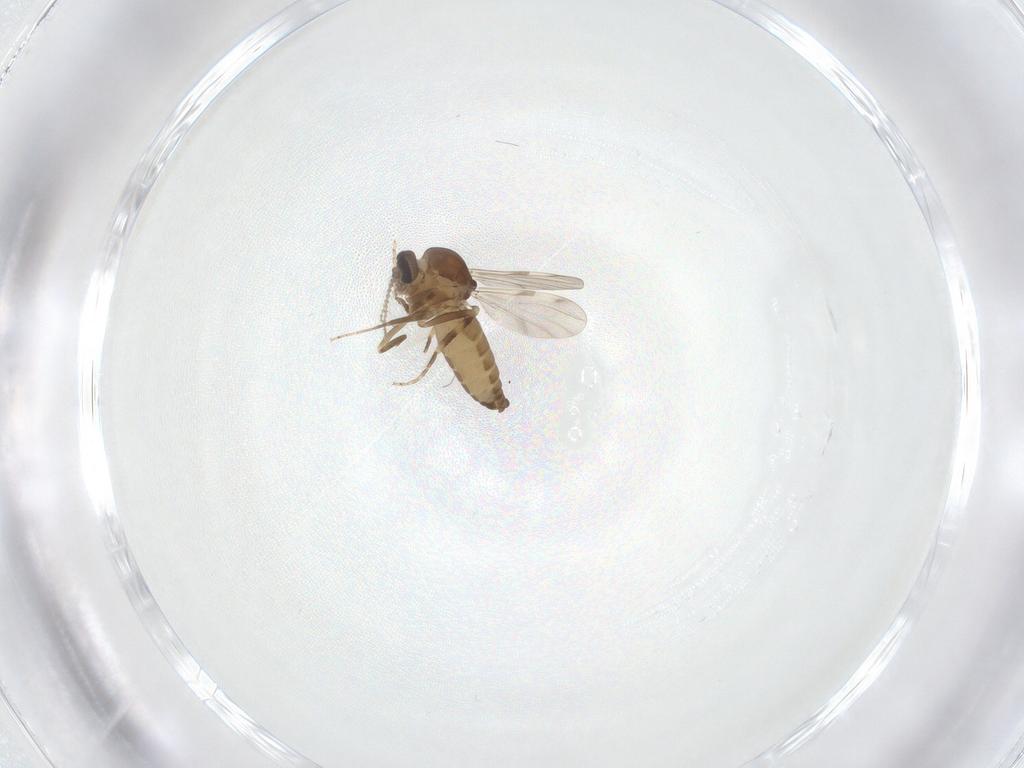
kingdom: Animalia
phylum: Arthropoda
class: Insecta
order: Diptera
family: Ceratopogonidae
